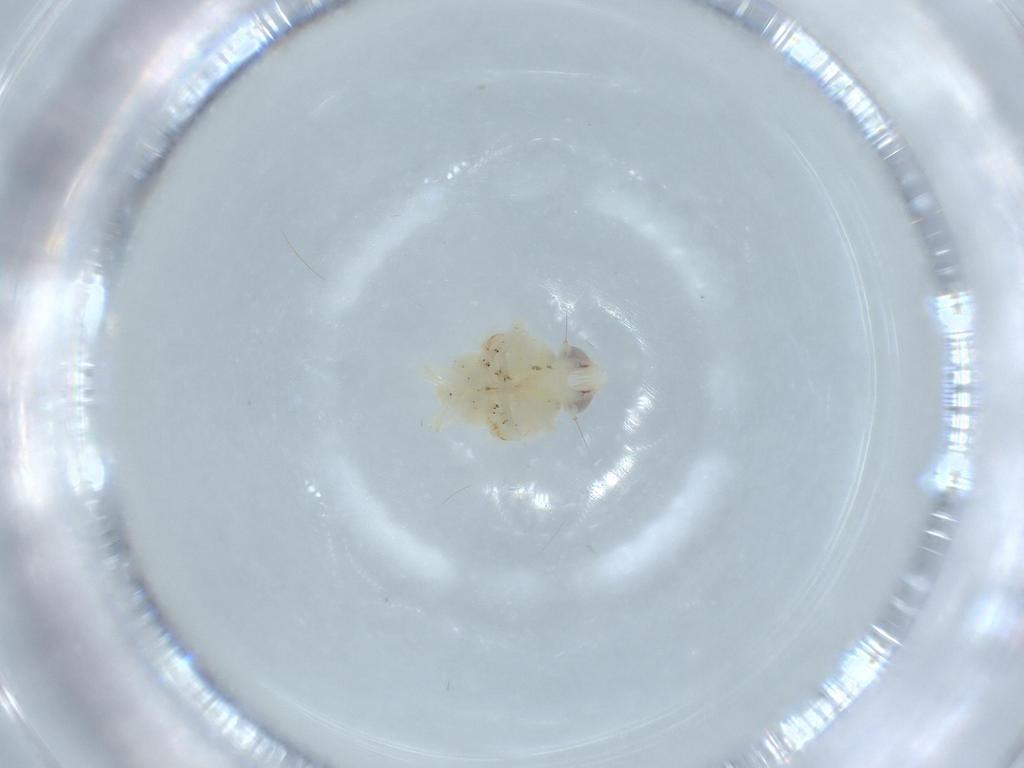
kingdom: Animalia
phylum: Arthropoda
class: Insecta
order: Hemiptera
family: Nogodinidae
